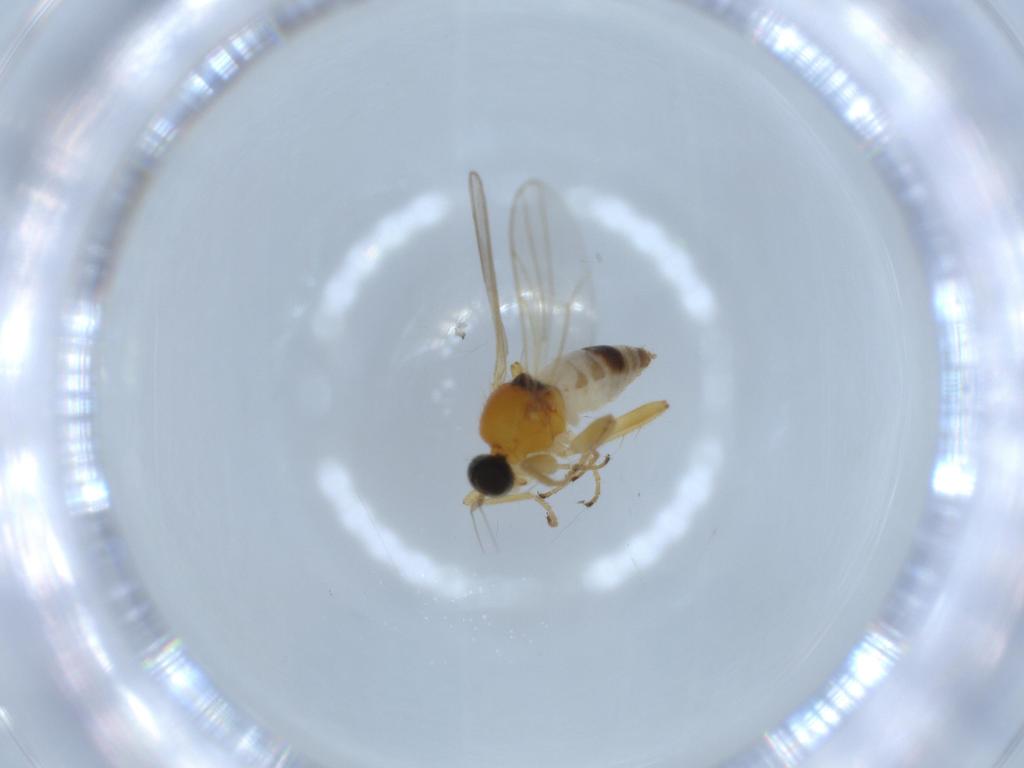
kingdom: Animalia
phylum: Arthropoda
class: Insecta
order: Diptera
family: Hybotidae
